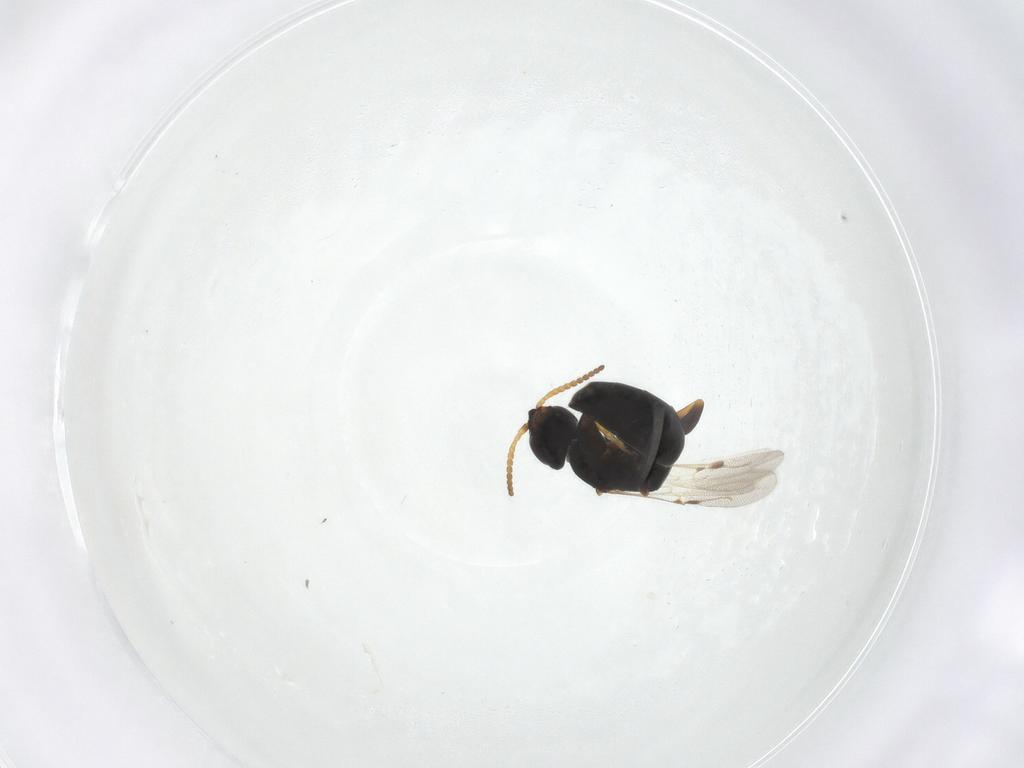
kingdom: Animalia
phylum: Arthropoda
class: Insecta
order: Hymenoptera
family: Bethylidae
